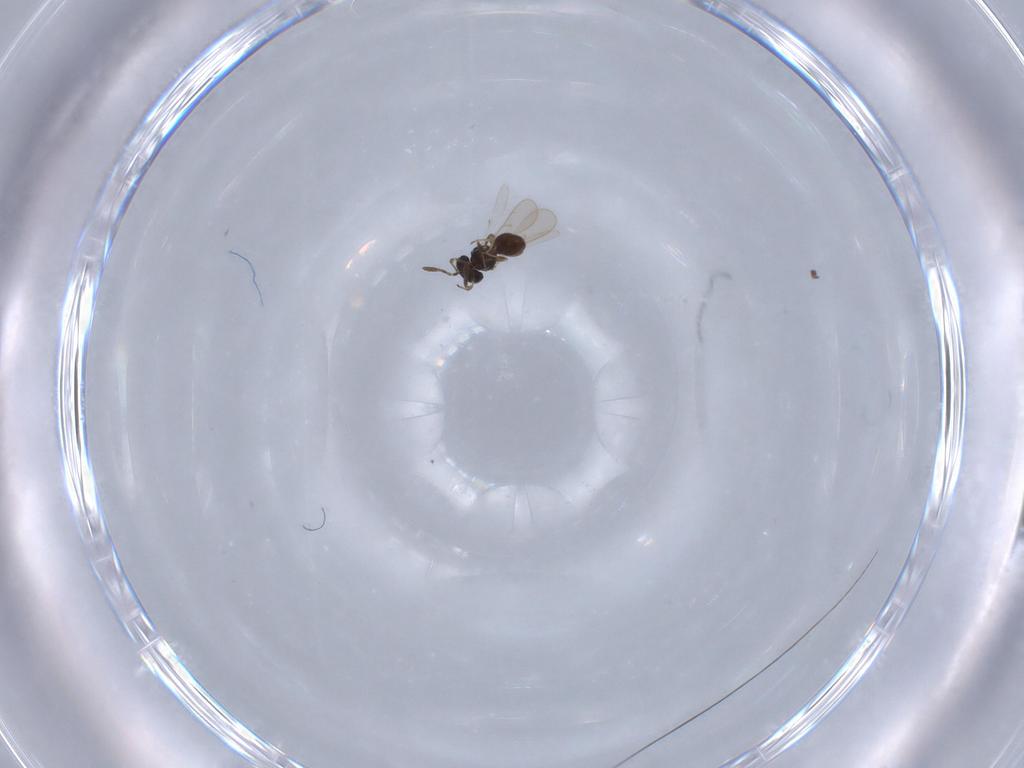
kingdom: Animalia
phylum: Arthropoda
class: Insecta
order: Hymenoptera
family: Scelionidae
